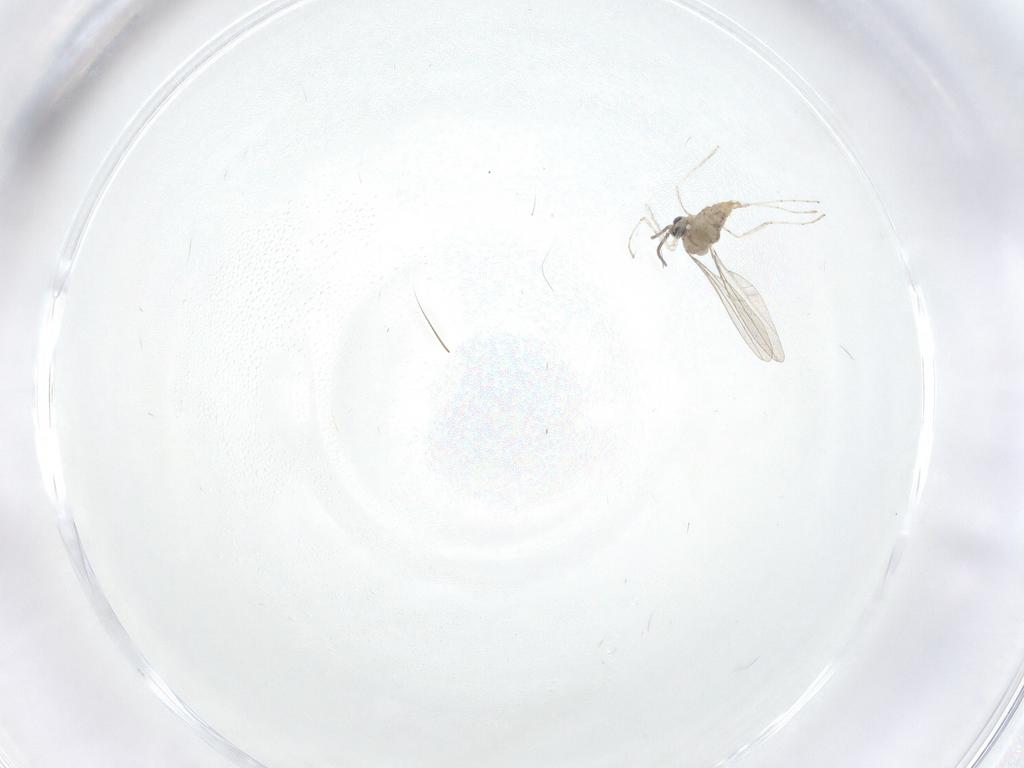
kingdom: Animalia
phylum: Arthropoda
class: Insecta
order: Diptera
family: Cecidomyiidae
